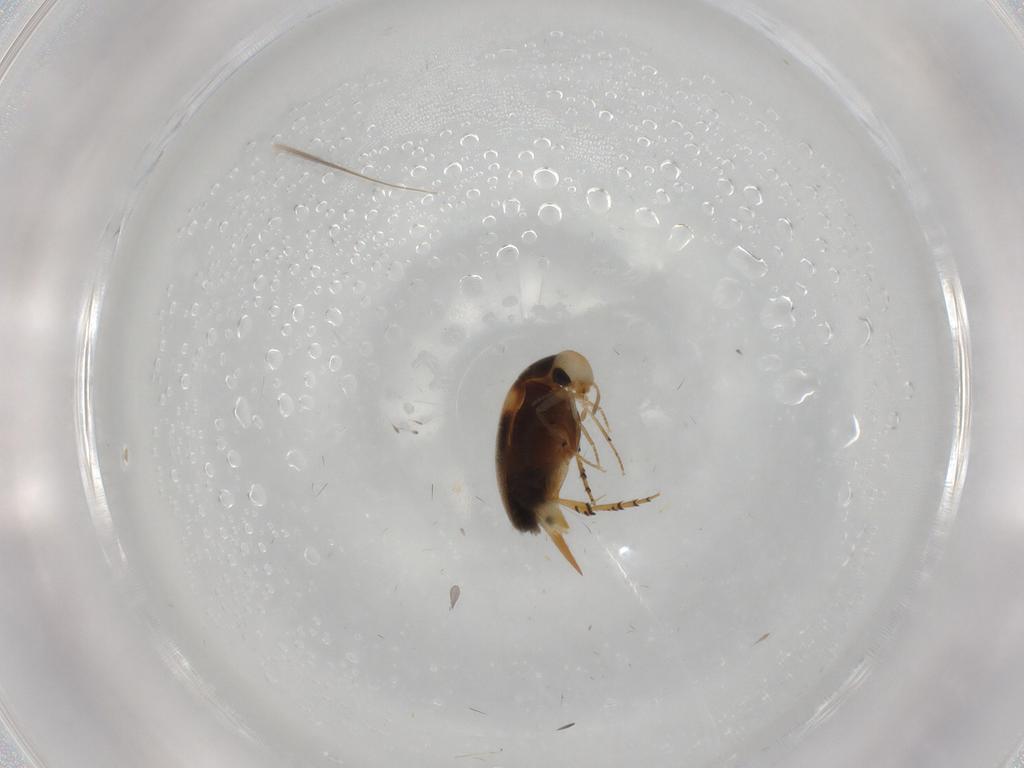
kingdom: Animalia
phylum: Arthropoda
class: Insecta
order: Coleoptera
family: Mordellidae
